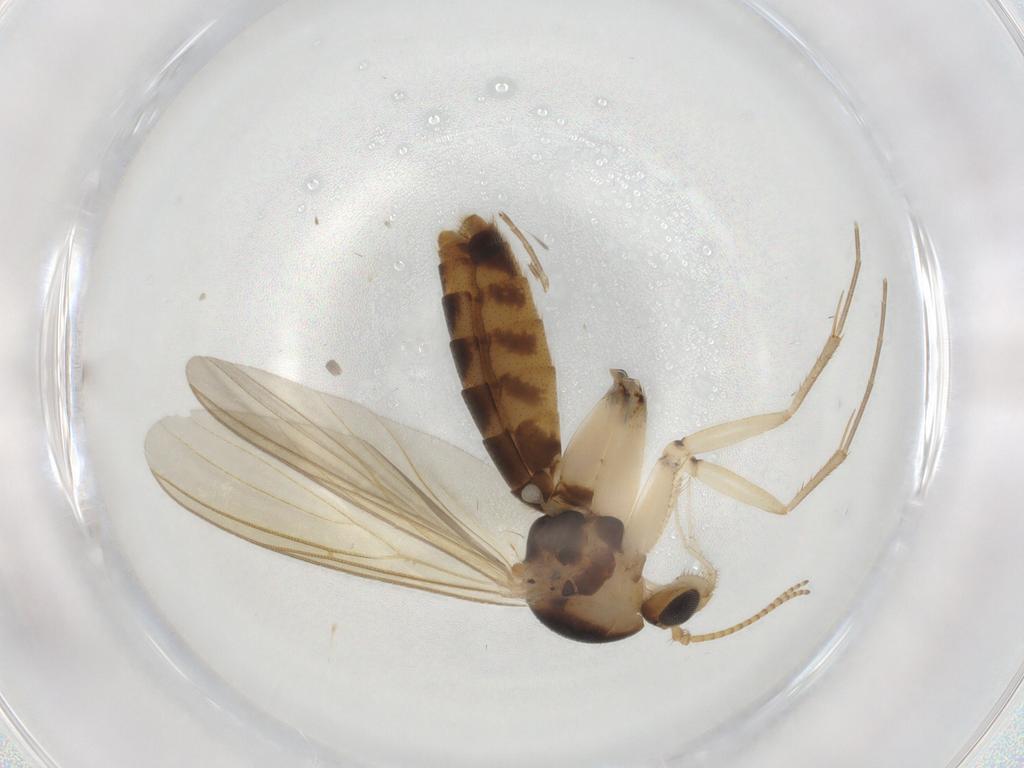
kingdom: Animalia
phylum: Arthropoda
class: Insecta
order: Diptera
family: Mycetophilidae
